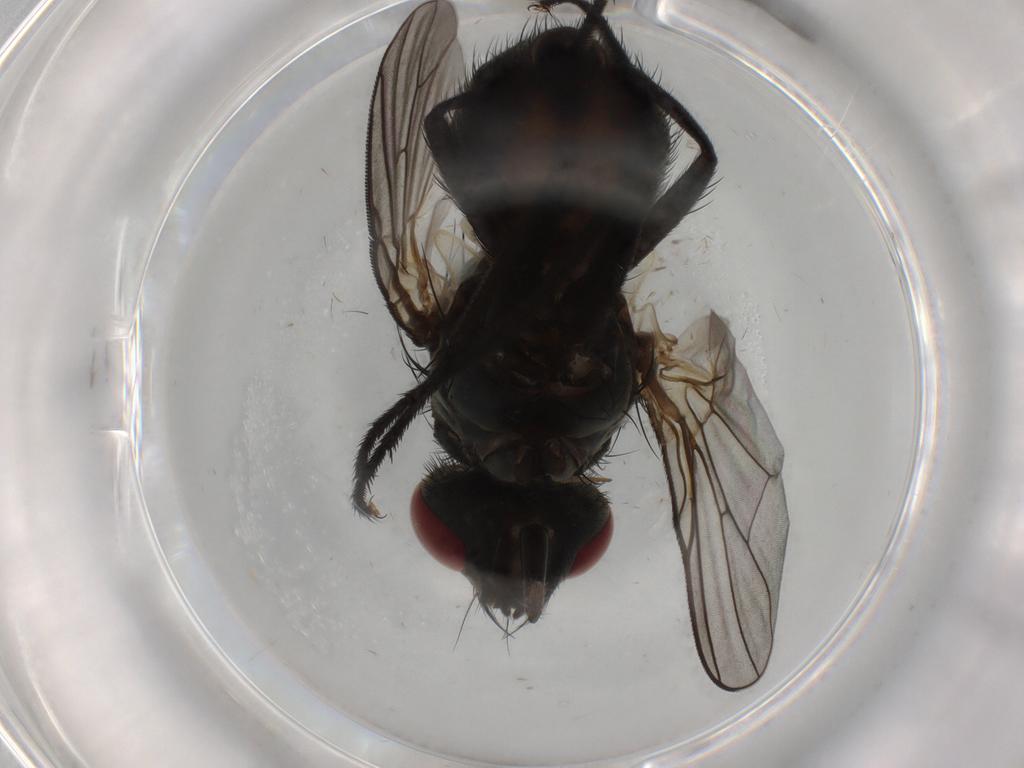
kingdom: Animalia
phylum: Arthropoda
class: Insecta
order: Diptera
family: Muscidae
